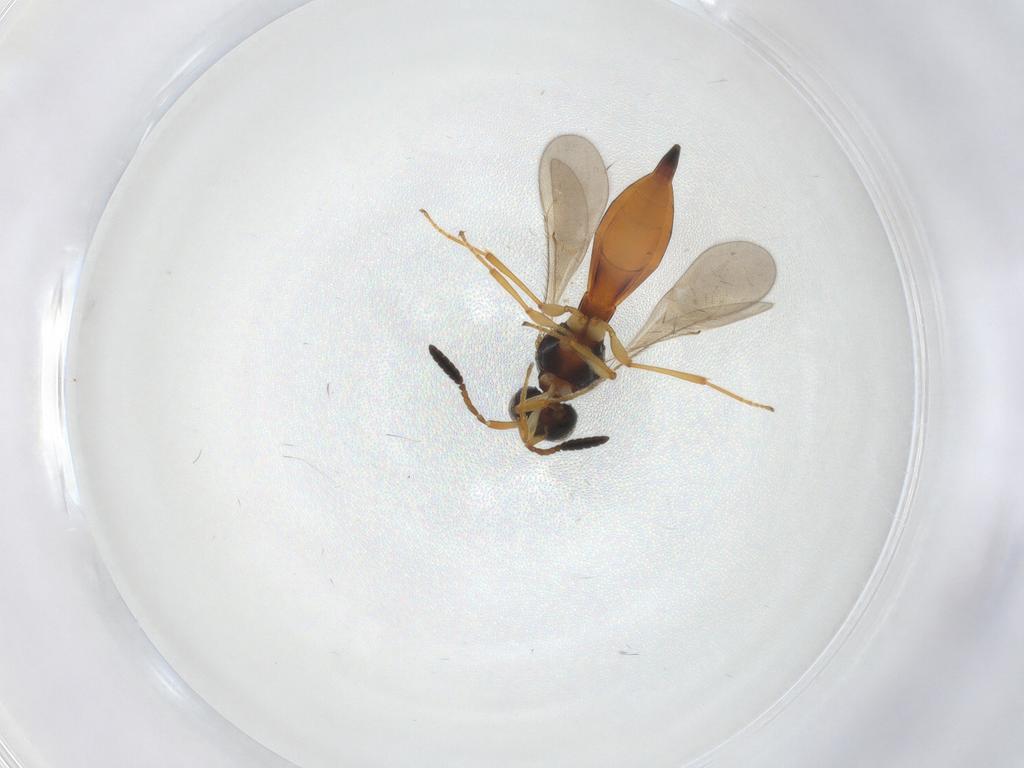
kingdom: Animalia
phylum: Arthropoda
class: Insecta
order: Hymenoptera
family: Scelionidae
